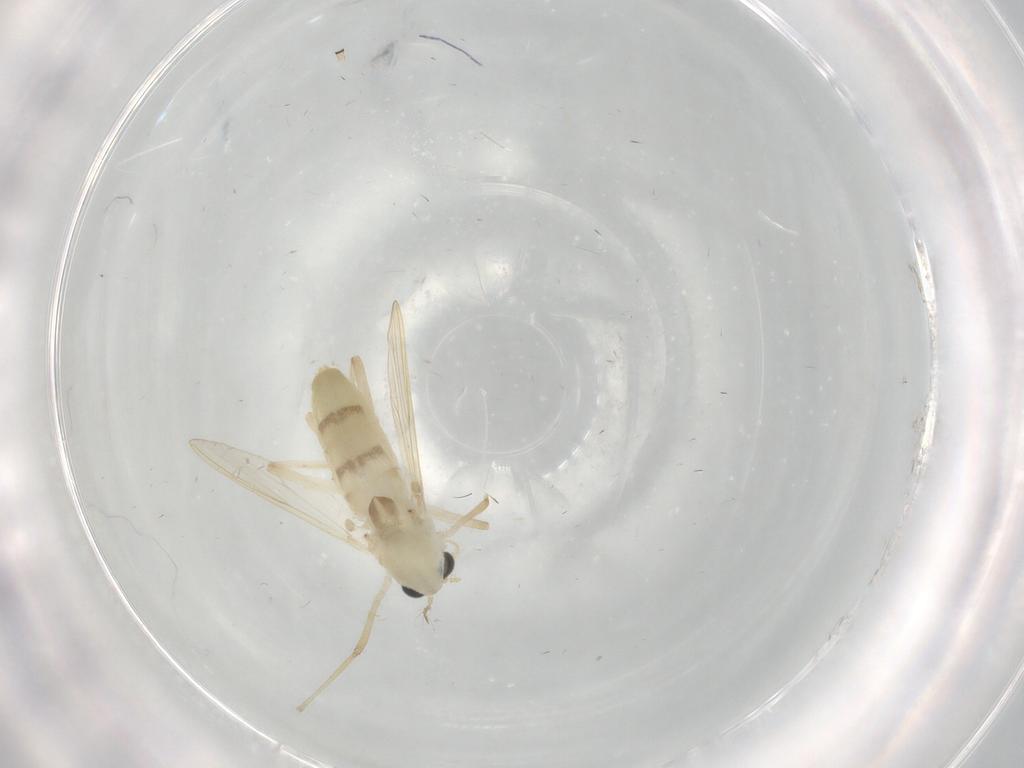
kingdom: Animalia
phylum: Arthropoda
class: Insecta
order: Diptera
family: Chironomidae
